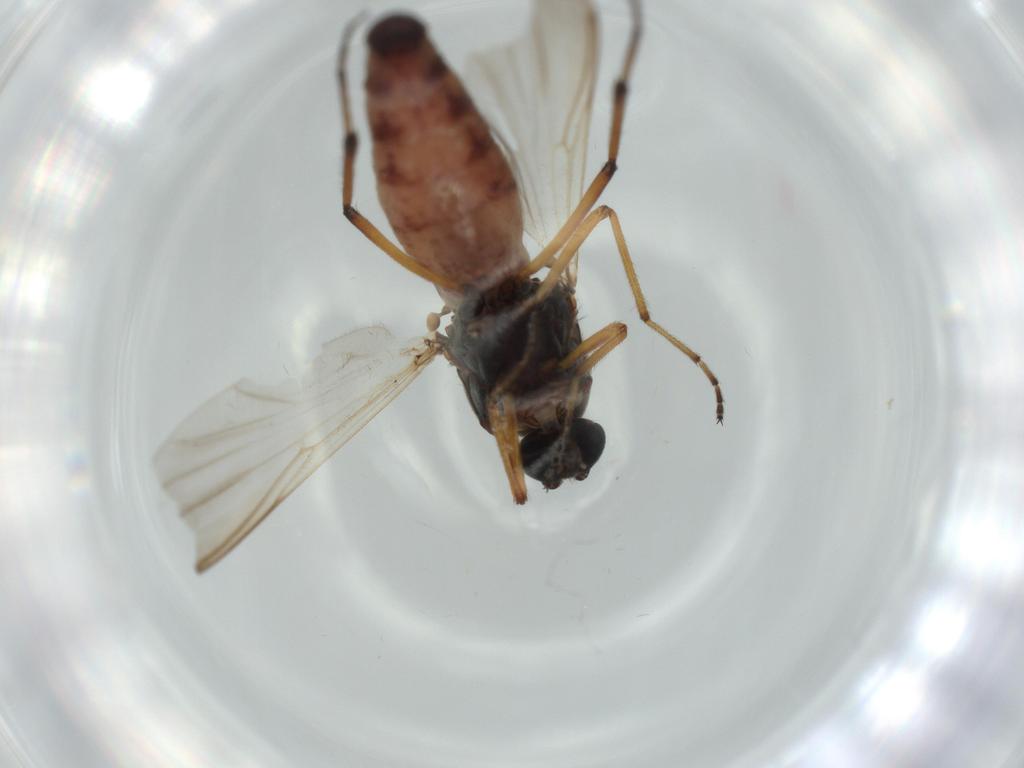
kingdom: Animalia
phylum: Arthropoda
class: Insecta
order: Diptera
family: Ceratopogonidae
